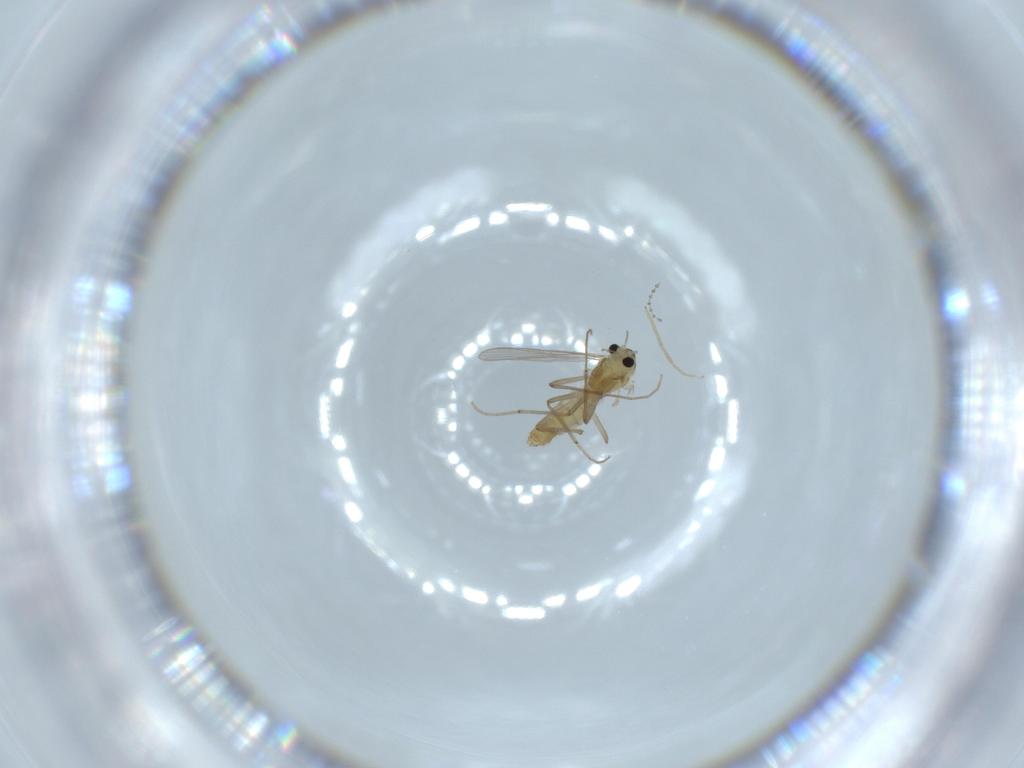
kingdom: Animalia
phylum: Arthropoda
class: Insecta
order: Diptera
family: Chironomidae
